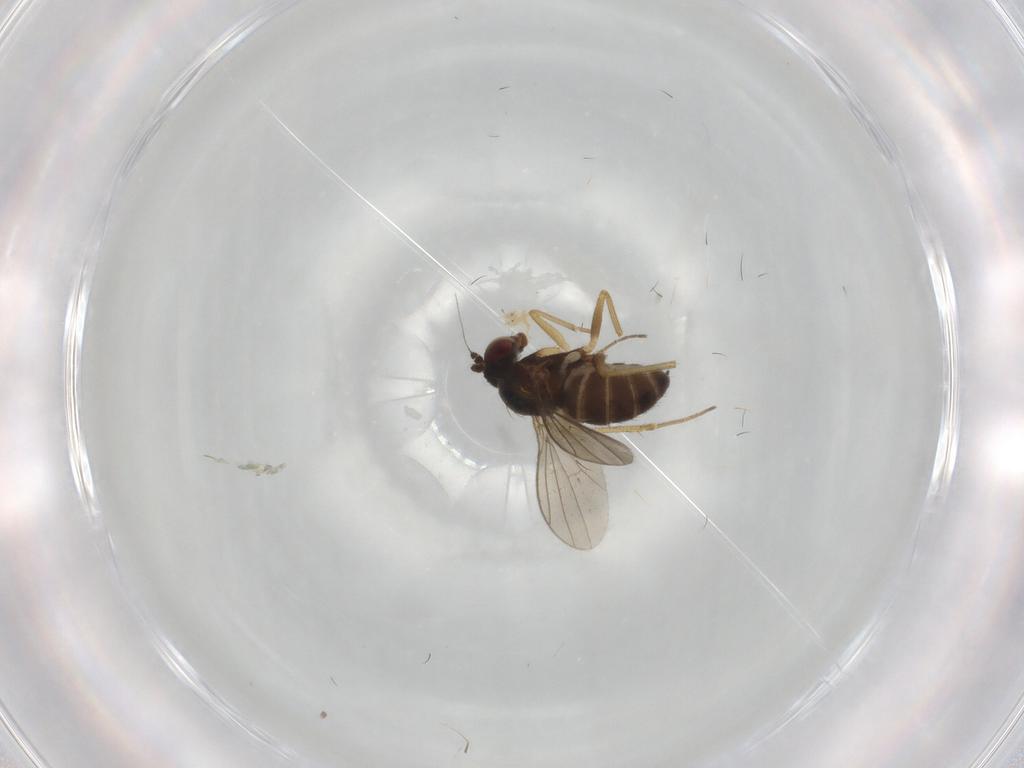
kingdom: Animalia
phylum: Arthropoda
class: Insecta
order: Diptera
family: Dolichopodidae
